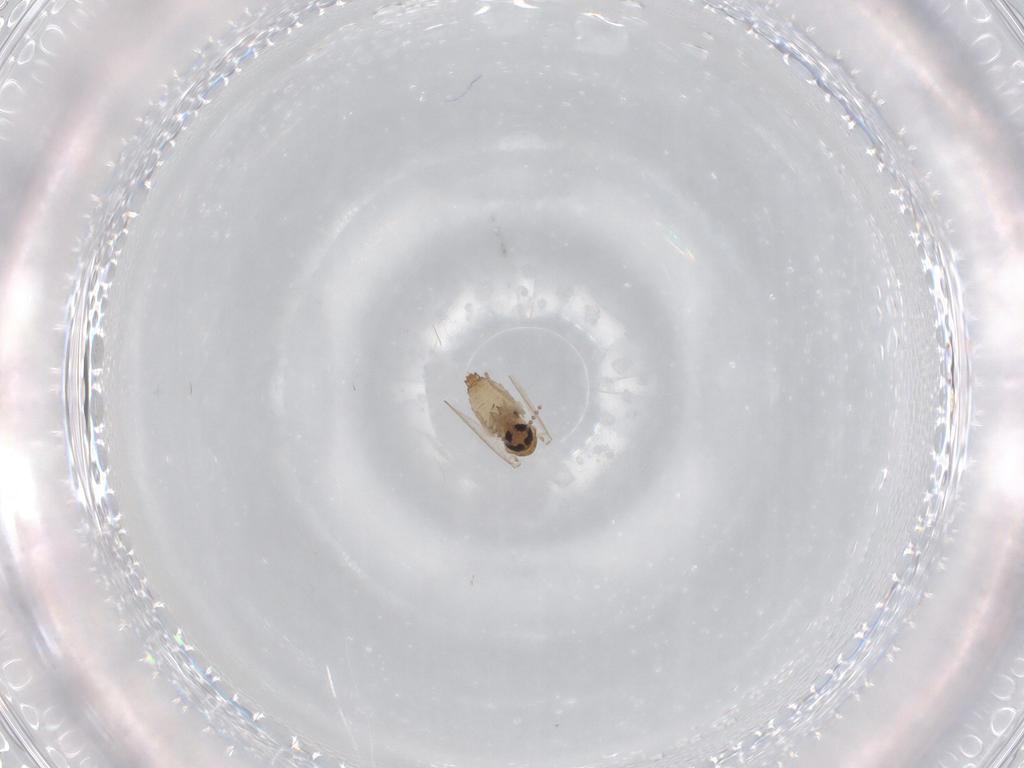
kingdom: Animalia
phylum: Arthropoda
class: Insecta
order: Diptera
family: Psychodidae
